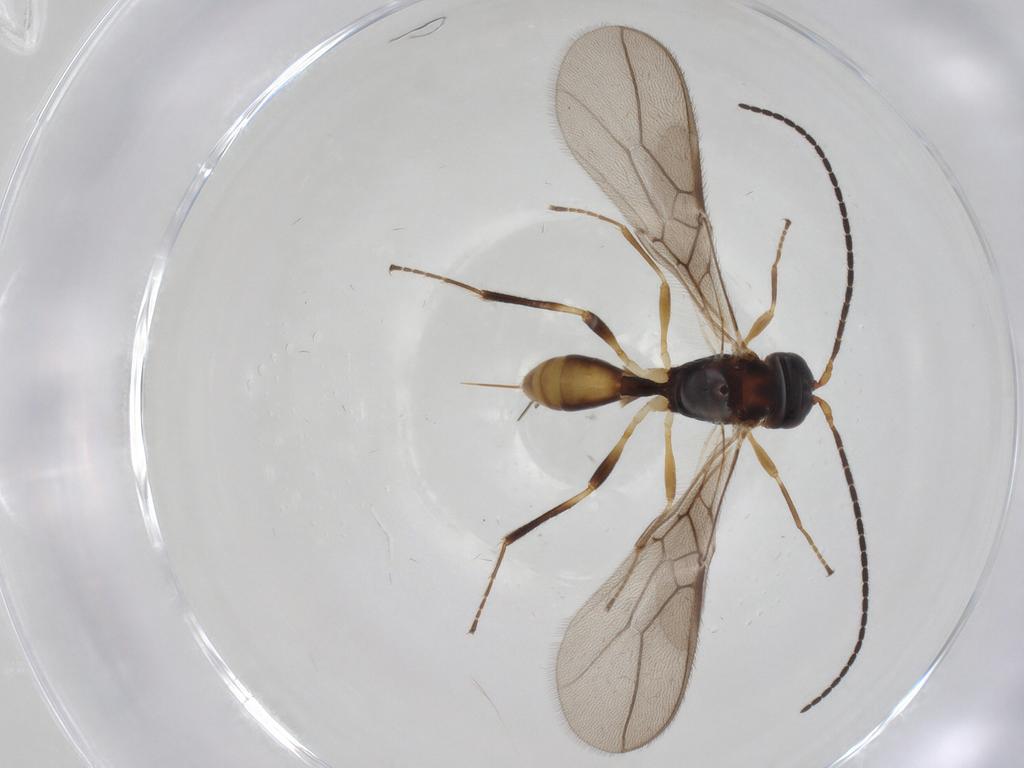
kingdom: Animalia
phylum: Arthropoda
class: Insecta
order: Hymenoptera
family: Braconidae
